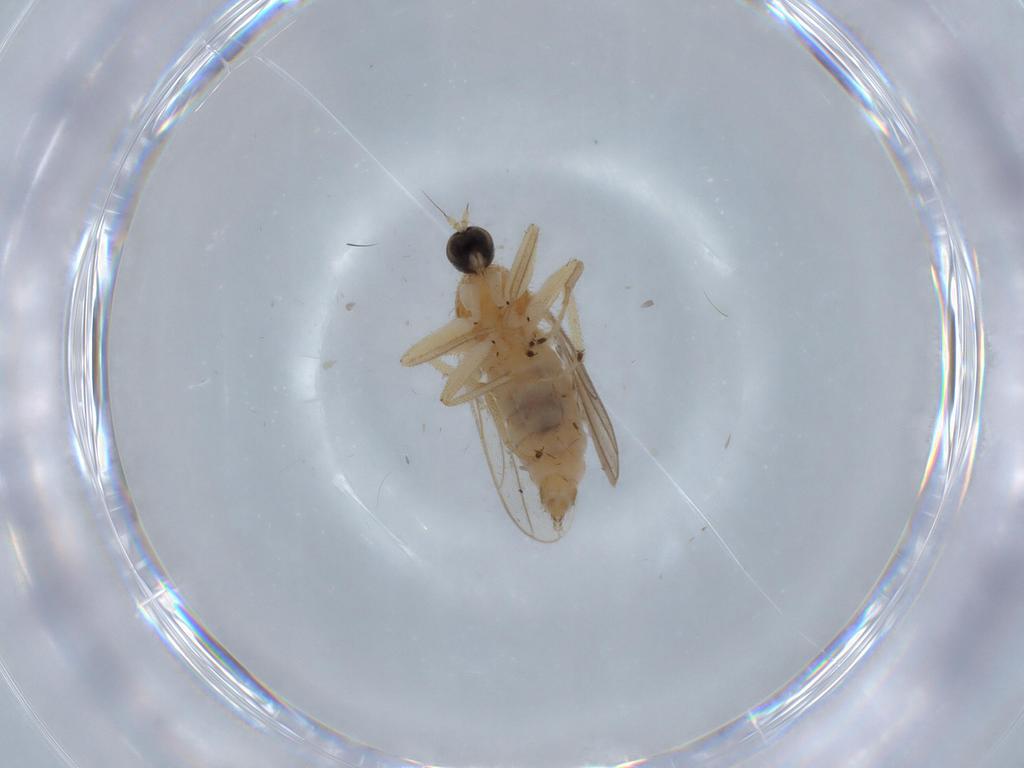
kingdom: Animalia
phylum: Arthropoda
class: Insecta
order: Diptera
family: Hybotidae
